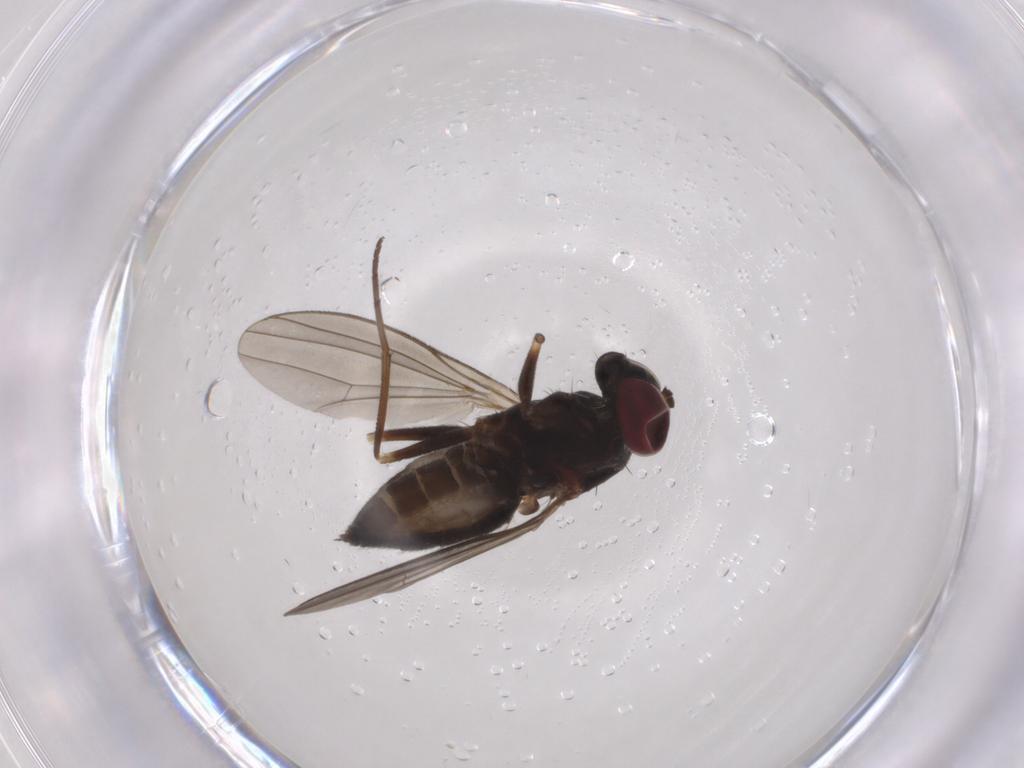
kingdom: Animalia
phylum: Arthropoda
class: Insecta
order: Diptera
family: Dolichopodidae
